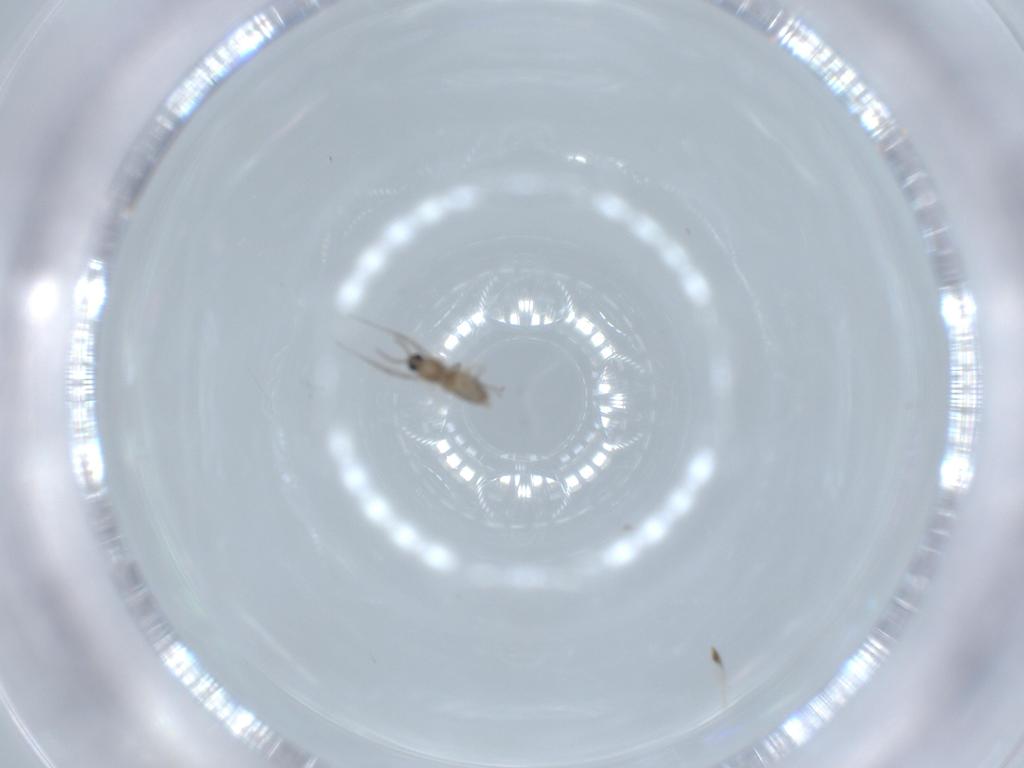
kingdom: Animalia
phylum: Arthropoda
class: Insecta
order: Diptera
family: Cecidomyiidae
